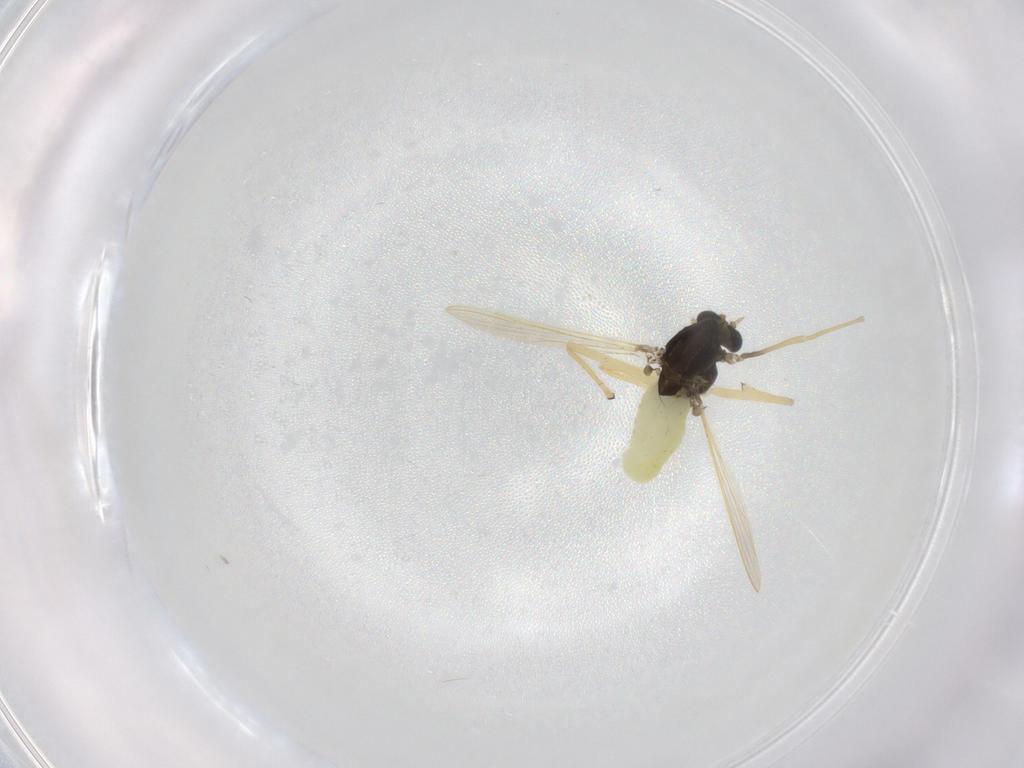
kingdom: Animalia
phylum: Arthropoda
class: Insecta
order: Diptera
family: Chironomidae
